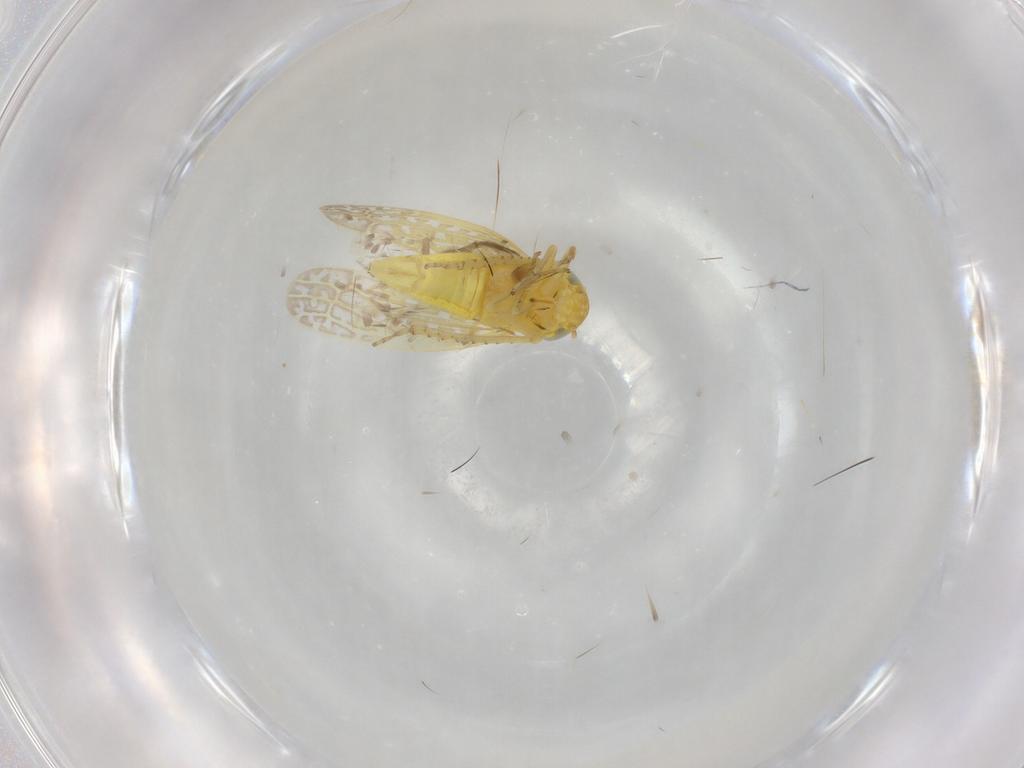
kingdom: Animalia
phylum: Arthropoda
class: Insecta
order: Hemiptera
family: Cicadellidae
